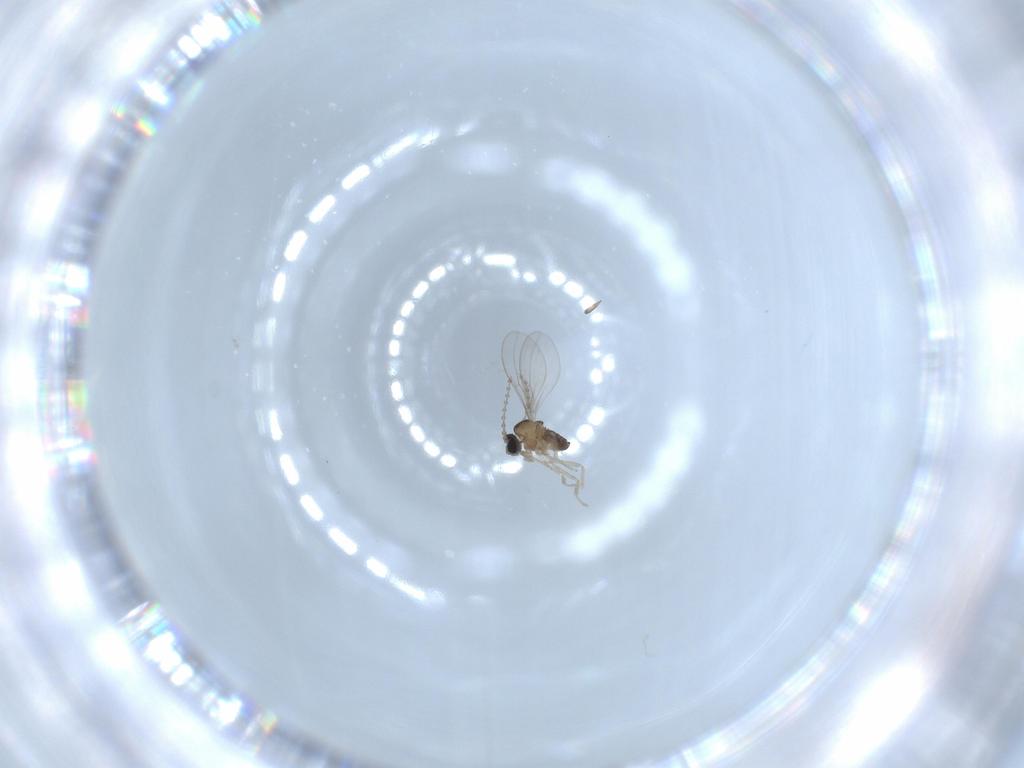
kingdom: Animalia
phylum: Arthropoda
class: Insecta
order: Diptera
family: Cecidomyiidae
